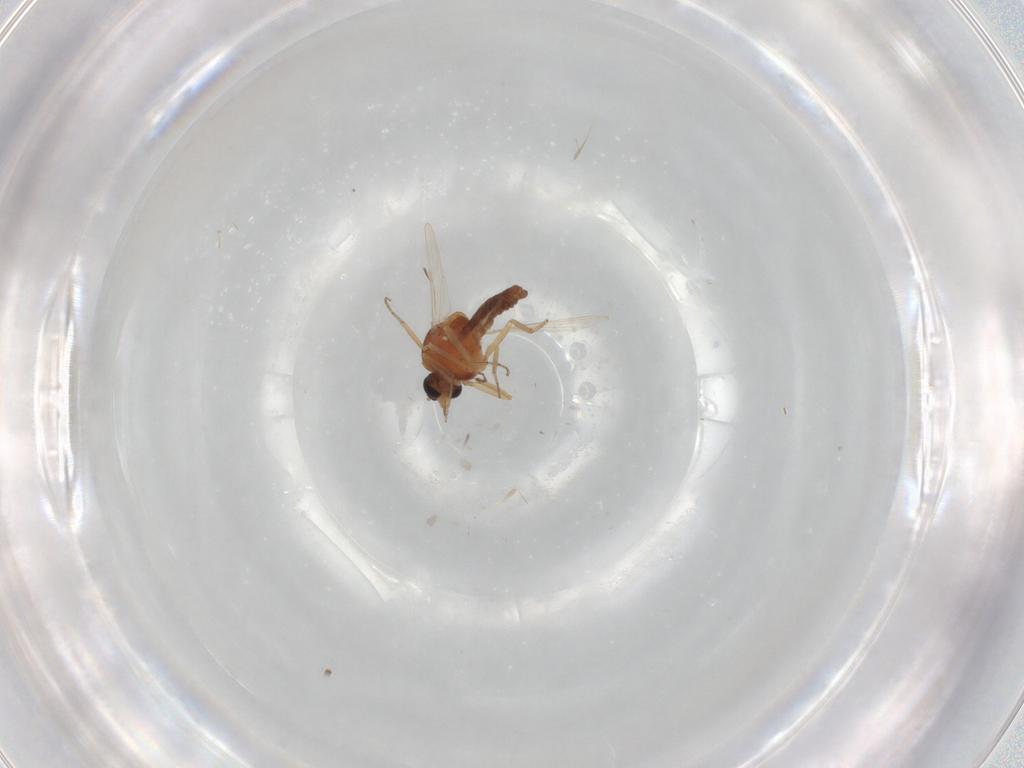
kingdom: Animalia
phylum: Arthropoda
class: Insecta
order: Diptera
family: Ceratopogonidae
